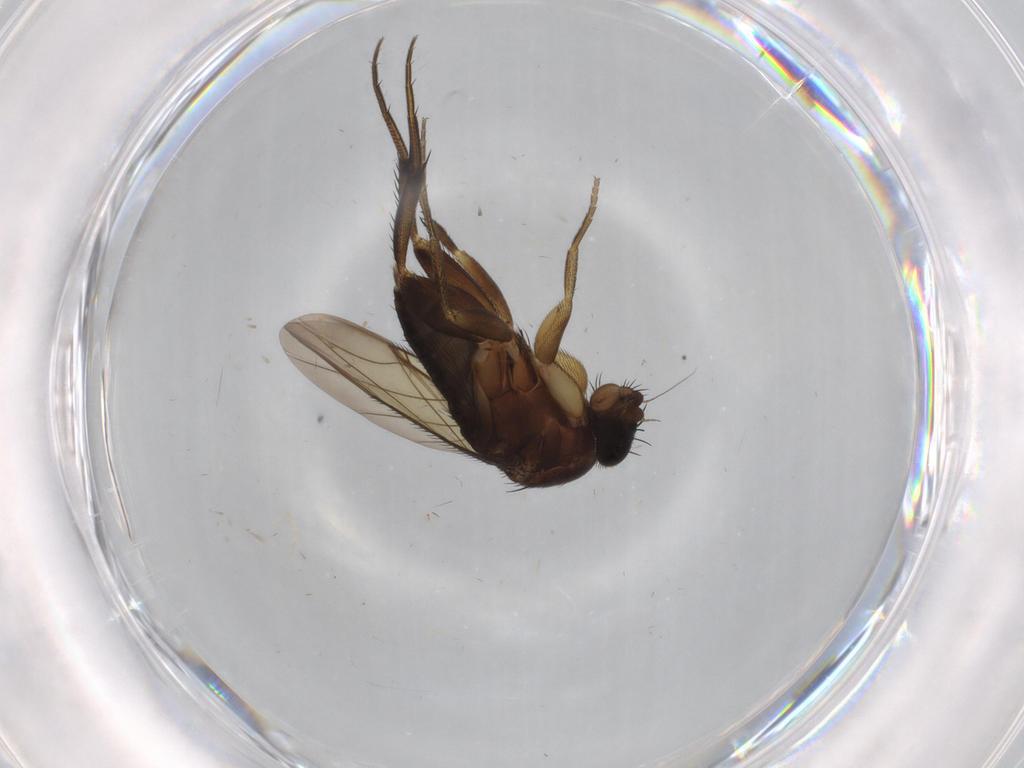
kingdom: Animalia
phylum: Arthropoda
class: Insecta
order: Diptera
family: Phoridae
